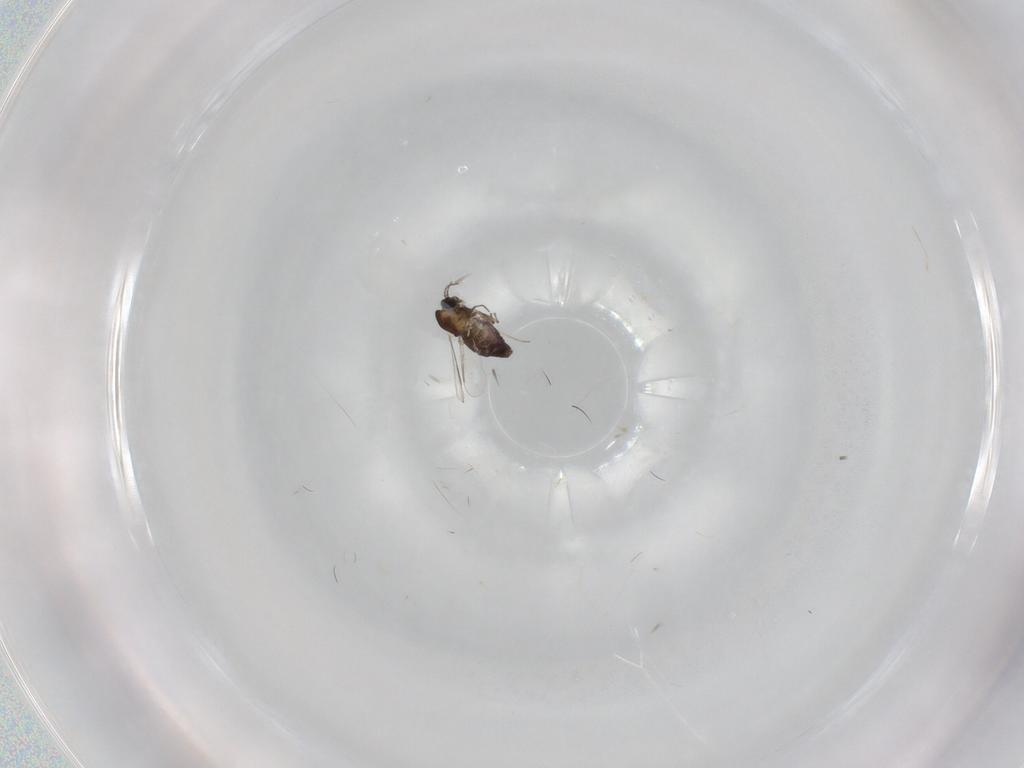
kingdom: Animalia
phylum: Arthropoda
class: Insecta
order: Diptera
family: Chironomidae
